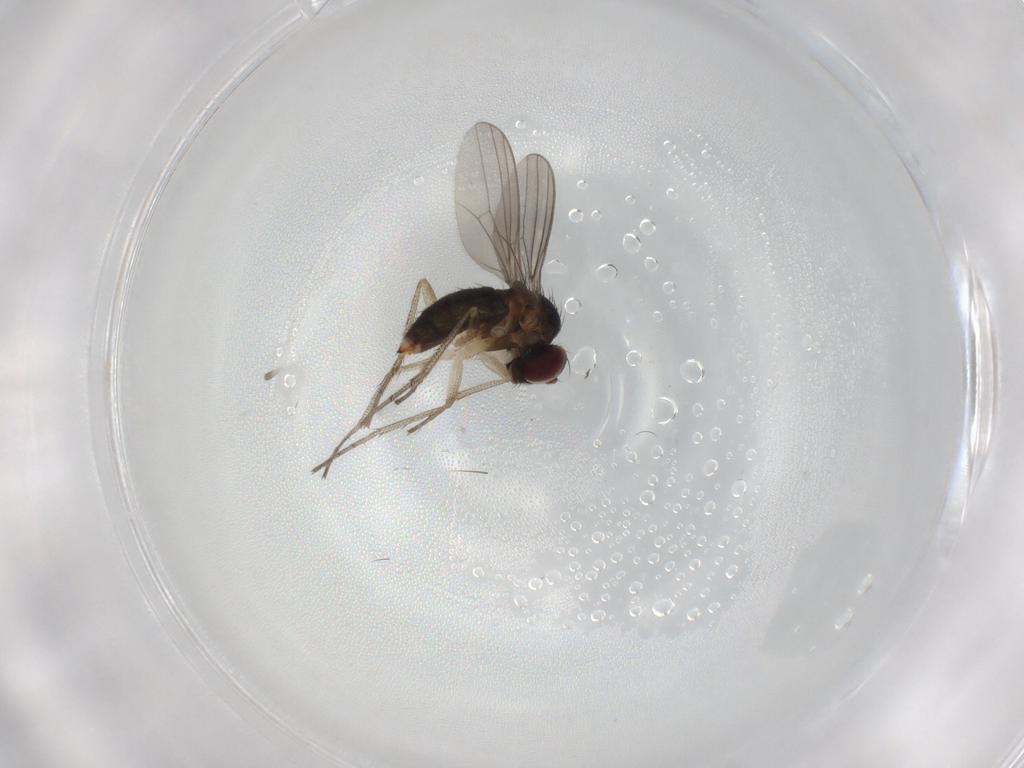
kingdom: Animalia
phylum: Arthropoda
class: Insecta
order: Diptera
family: Dolichopodidae
